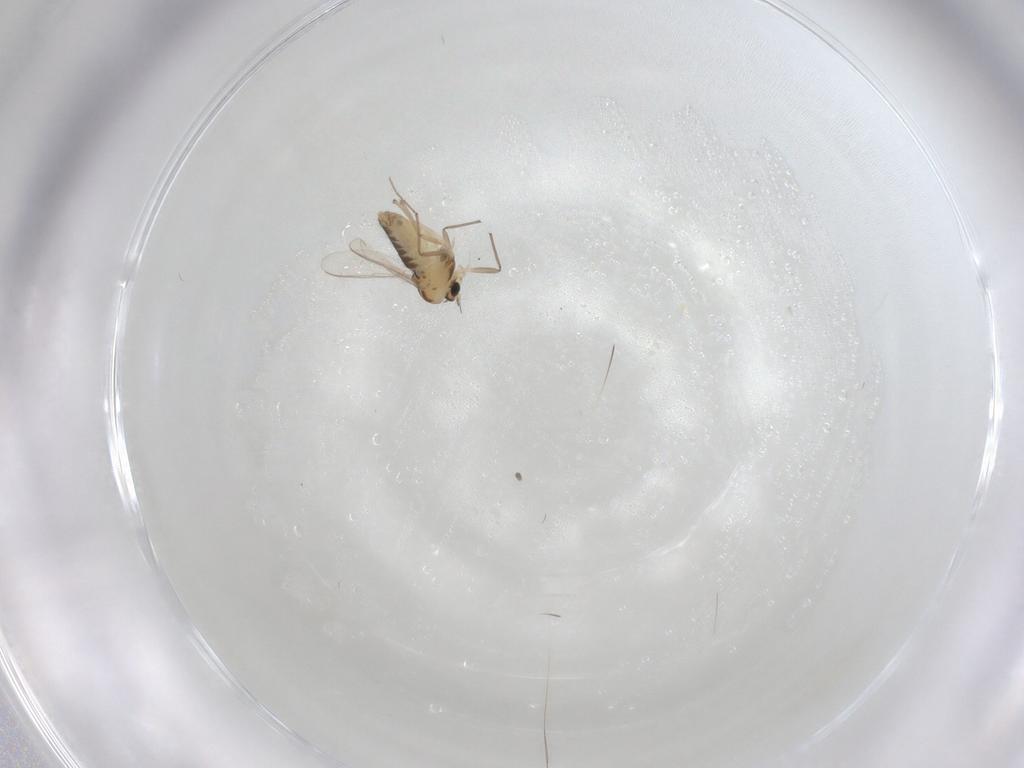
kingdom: Animalia
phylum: Arthropoda
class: Insecta
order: Diptera
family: Chironomidae
